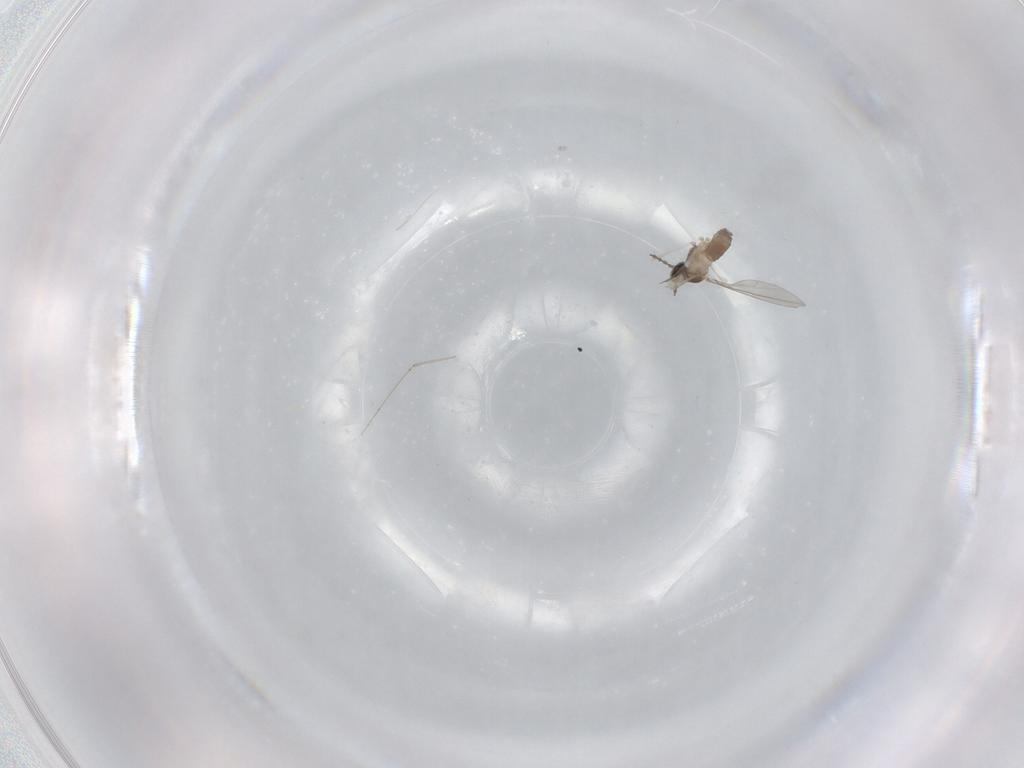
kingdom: Animalia
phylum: Arthropoda
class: Insecta
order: Diptera
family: Cecidomyiidae
